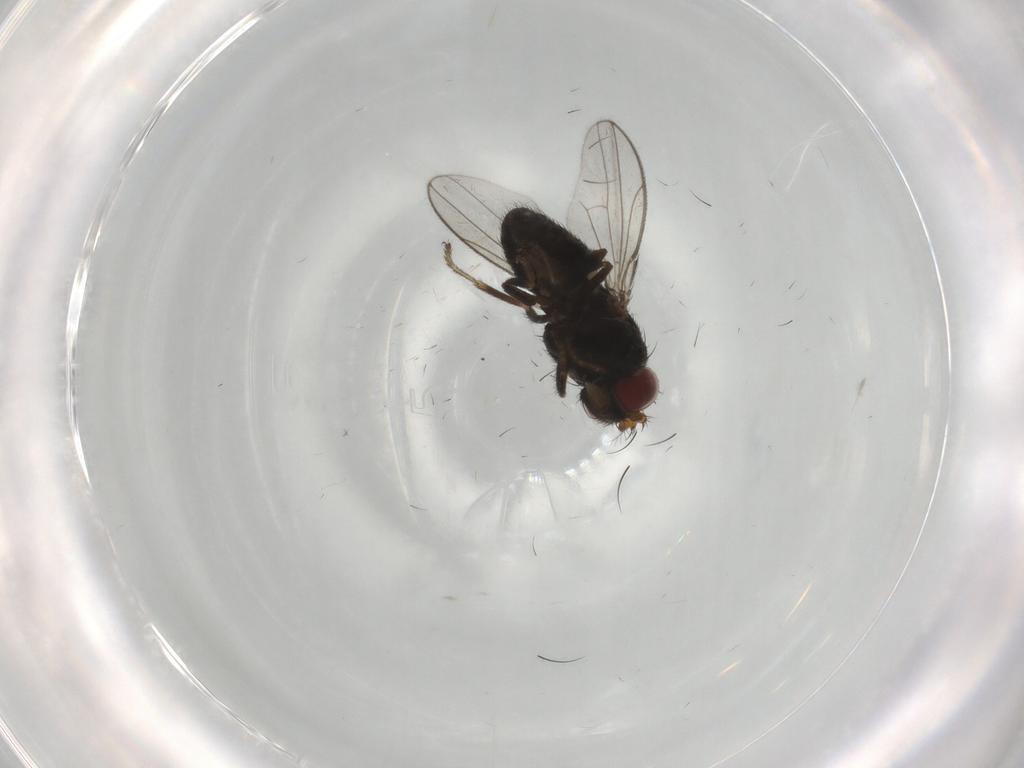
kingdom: Animalia
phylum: Arthropoda
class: Insecta
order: Diptera
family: Ephydridae
